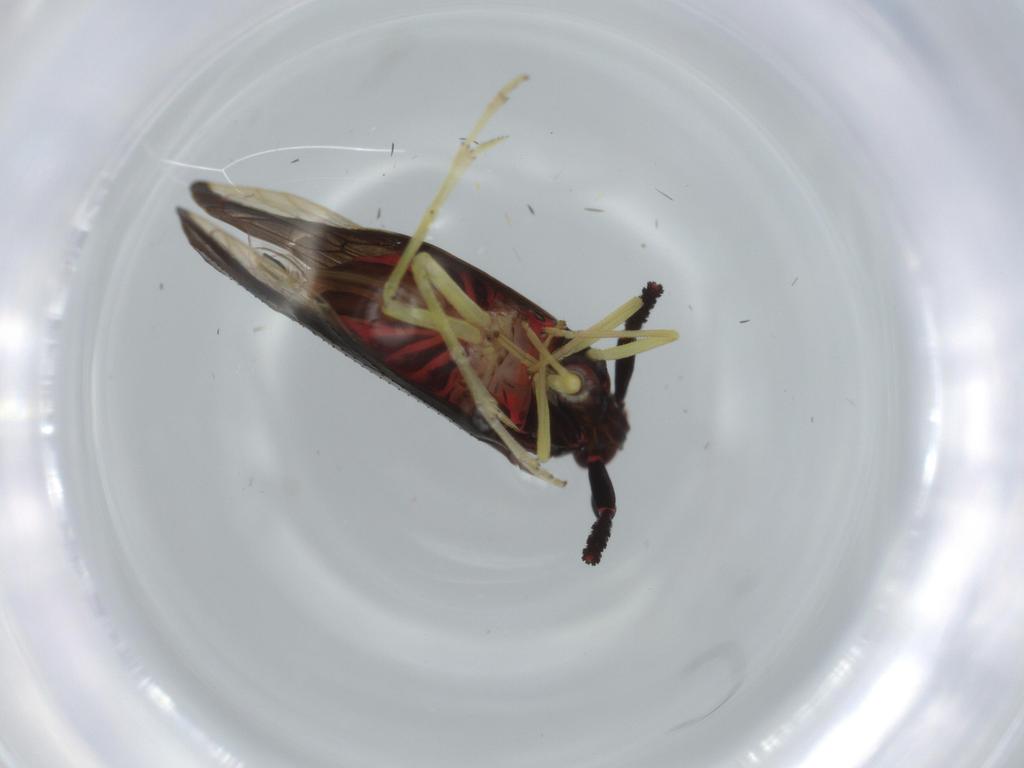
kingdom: Animalia
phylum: Arthropoda
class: Insecta
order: Hemiptera
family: Delphacidae
